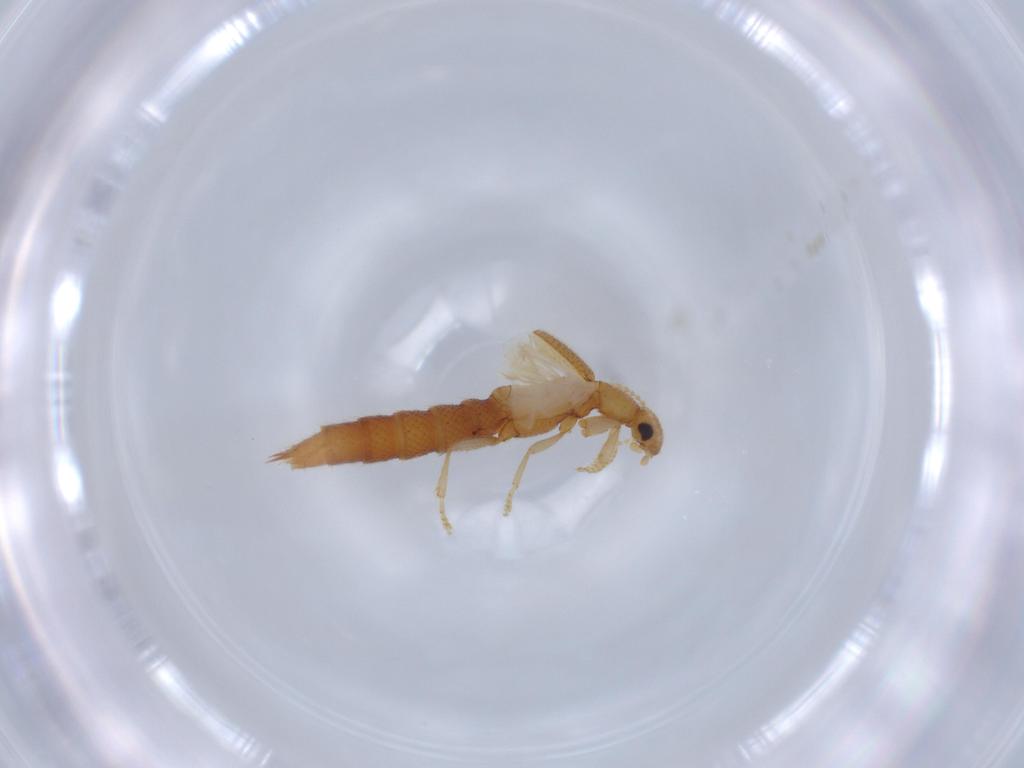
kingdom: Animalia
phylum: Arthropoda
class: Insecta
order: Coleoptera
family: Staphylinidae
